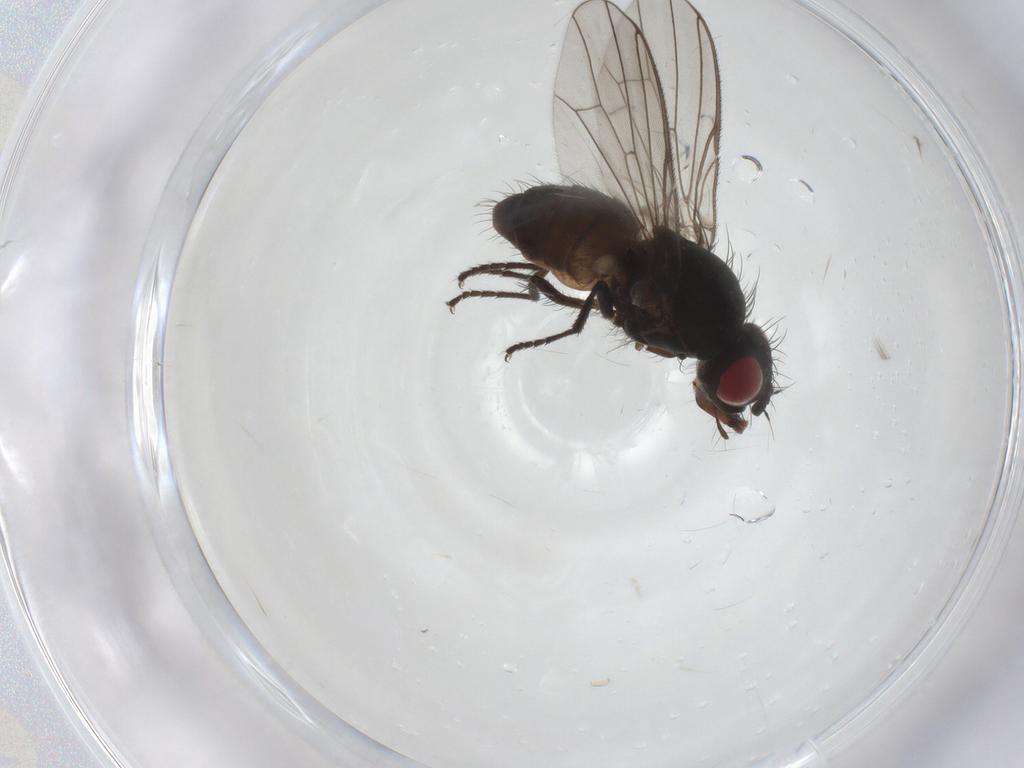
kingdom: Animalia
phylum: Arthropoda
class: Insecta
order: Diptera
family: Anthomyiidae
